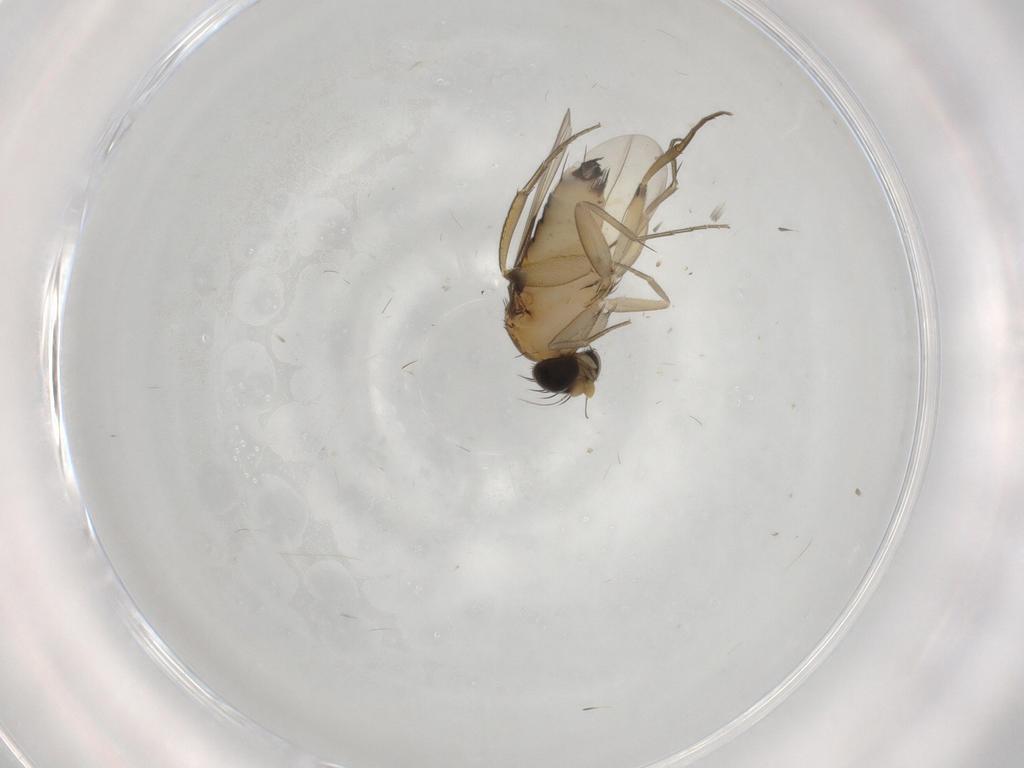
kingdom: Animalia
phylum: Arthropoda
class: Insecta
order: Diptera
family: Phoridae
